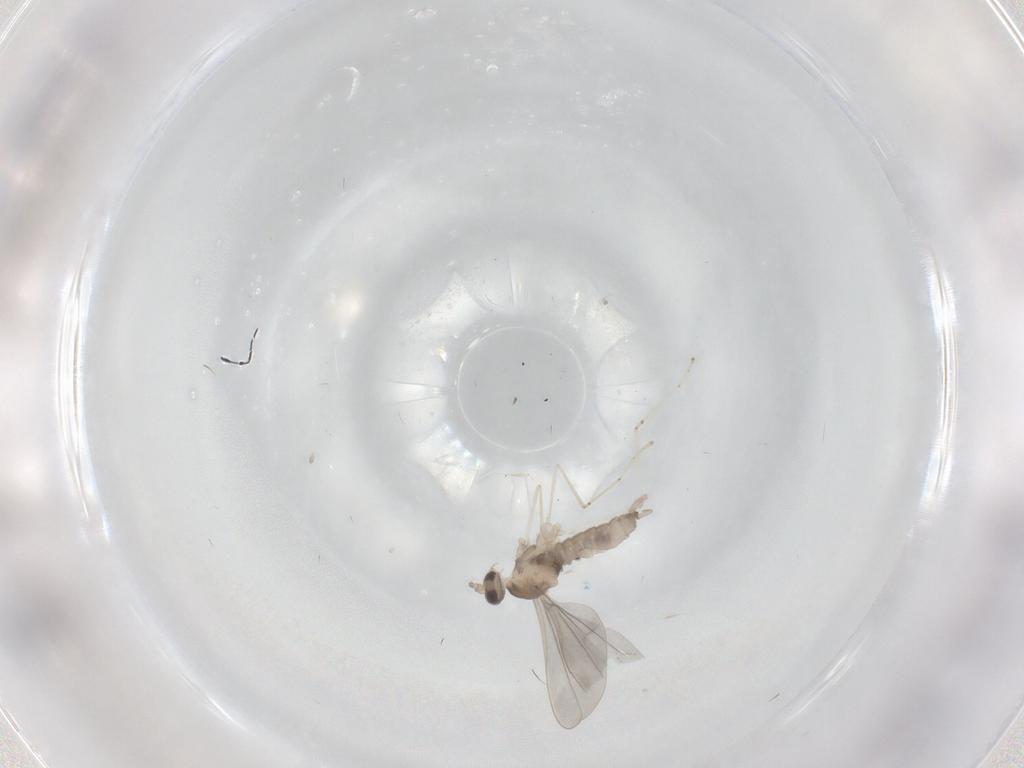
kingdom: Animalia
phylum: Arthropoda
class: Insecta
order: Diptera
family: Cecidomyiidae
